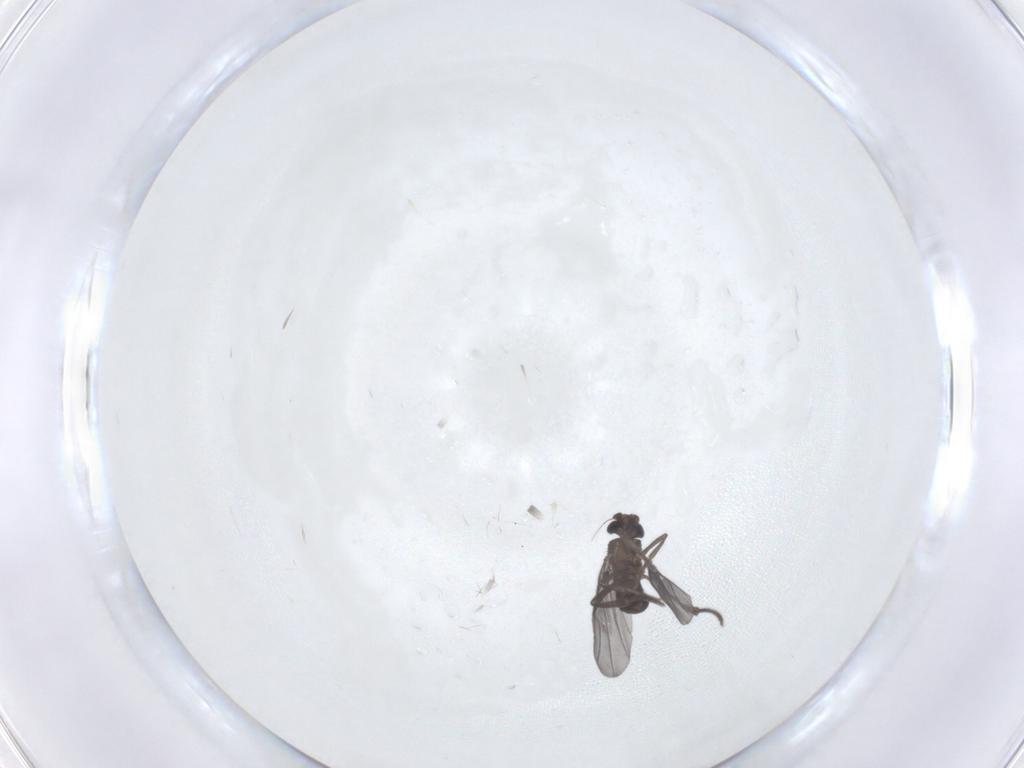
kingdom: Animalia
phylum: Arthropoda
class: Insecta
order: Diptera
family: Phoridae
